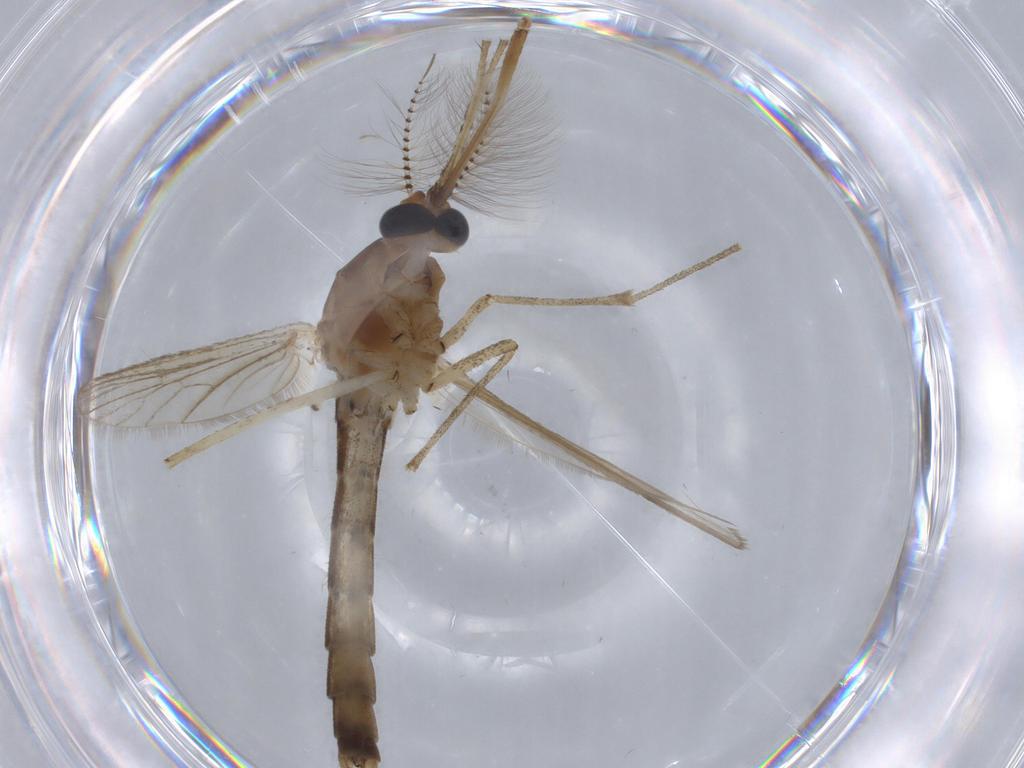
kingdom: Animalia
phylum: Arthropoda
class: Insecta
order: Diptera
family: Culicidae
